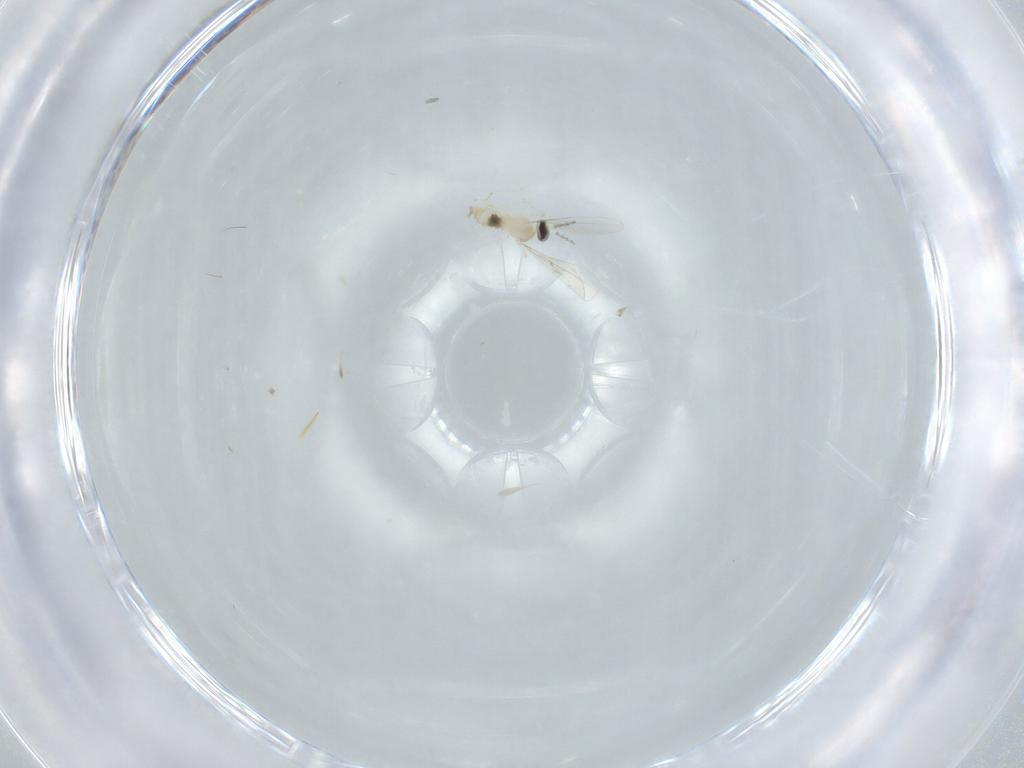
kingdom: Animalia
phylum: Arthropoda
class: Insecta
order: Diptera
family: Cecidomyiidae
